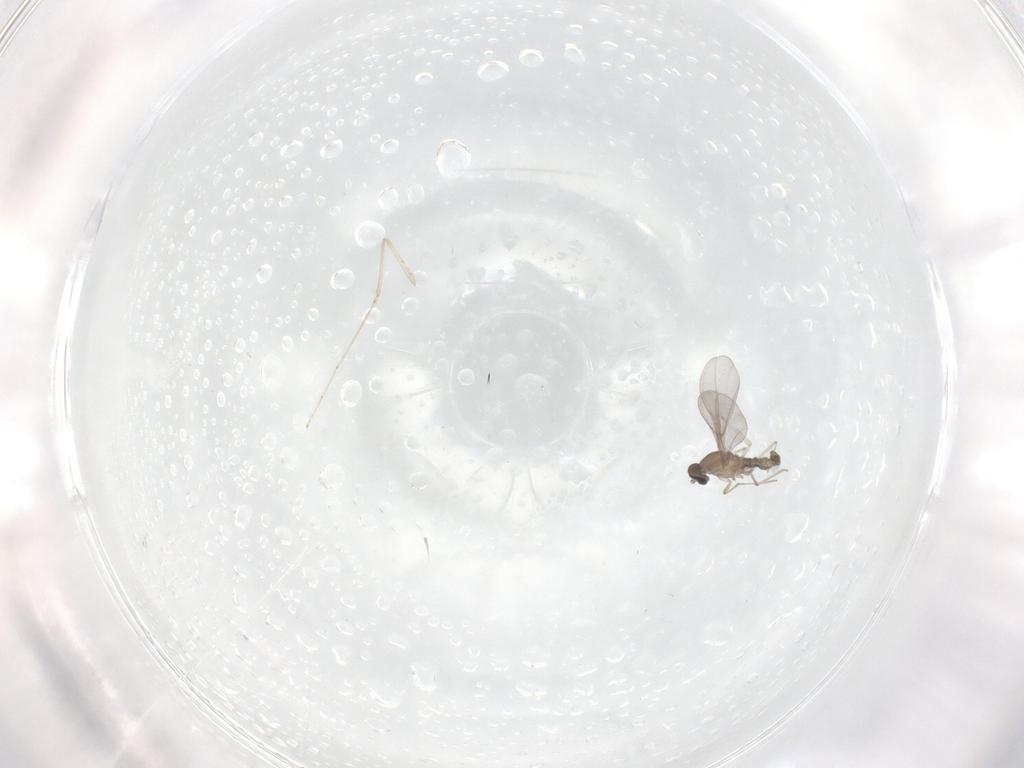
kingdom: Animalia
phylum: Arthropoda
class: Insecta
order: Diptera
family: Cecidomyiidae
